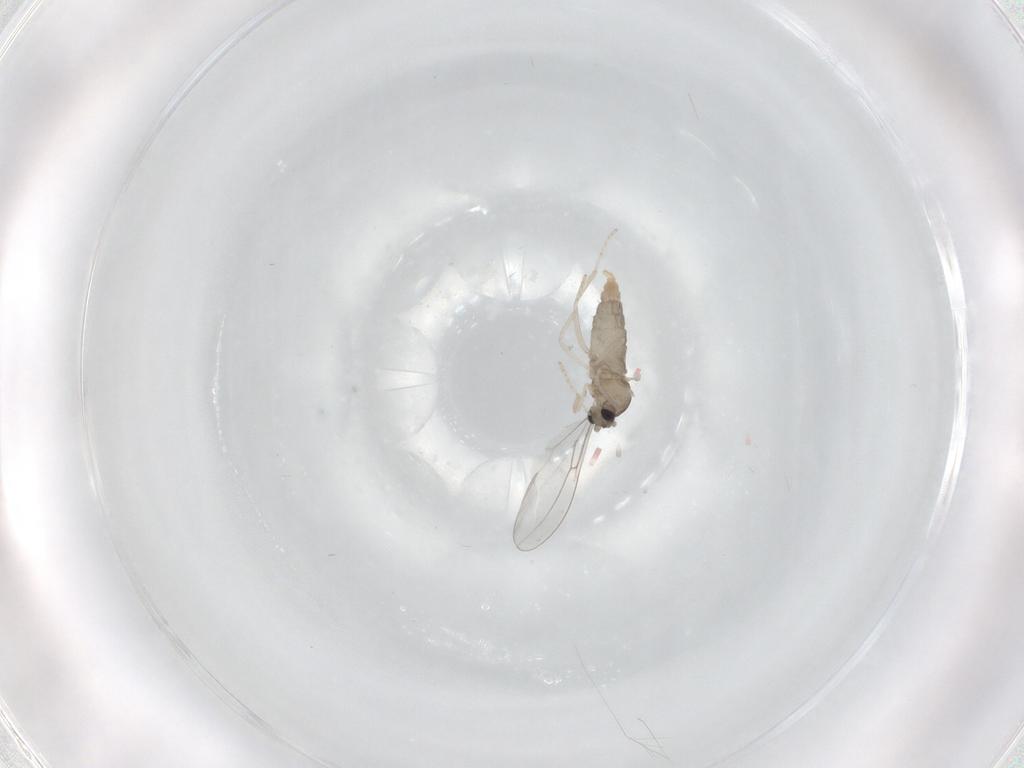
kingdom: Animalia
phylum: Arthropoda
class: Insecta
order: Diptera
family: Cecidomyiidae
